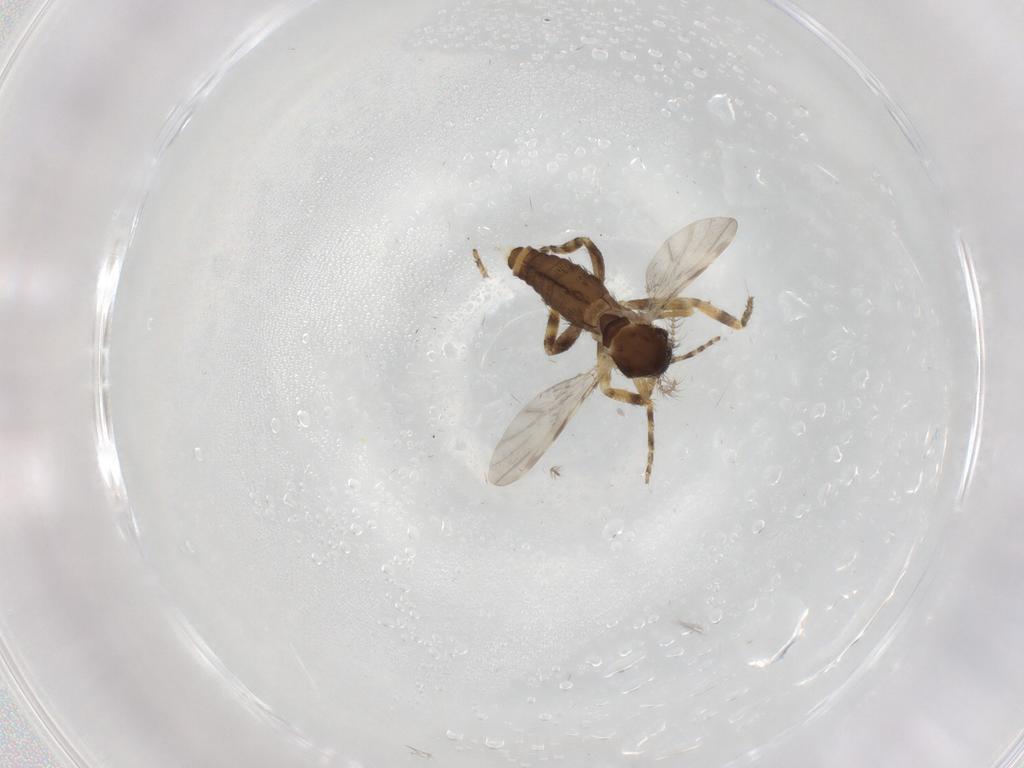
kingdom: Animalia
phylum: Arthropoda
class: Insecta
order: Diptera
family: Ceratopogonidae
